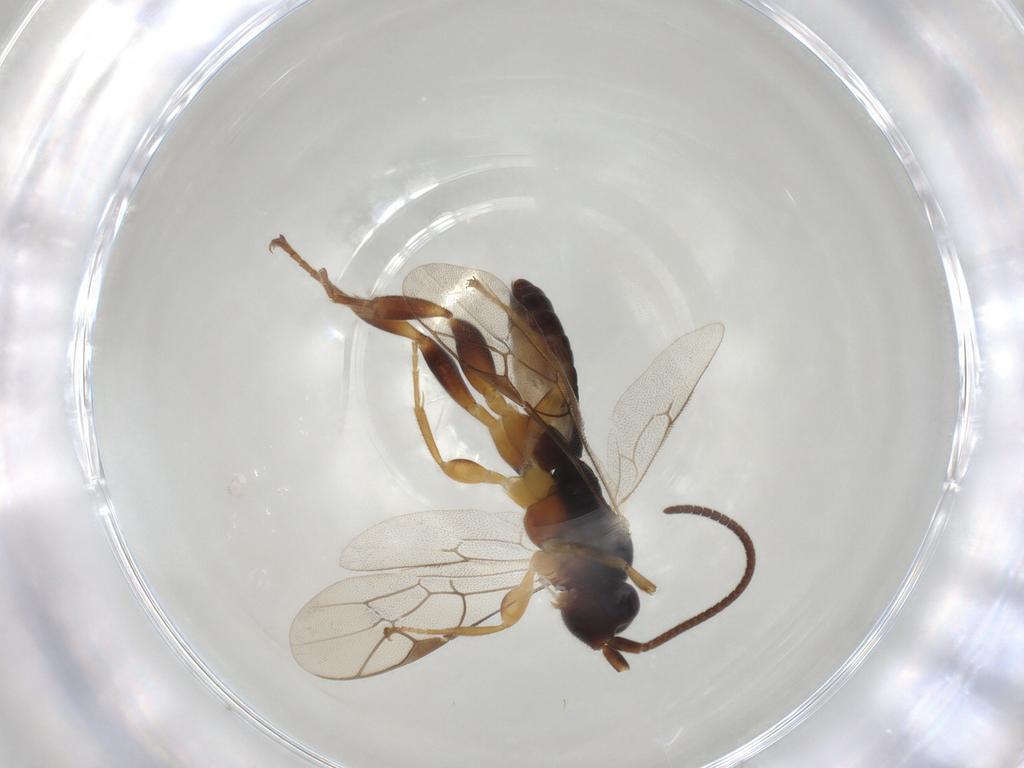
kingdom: Animalia
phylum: Arthropoda
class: Insecta
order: Hymenoptera
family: Ichneumonidae
